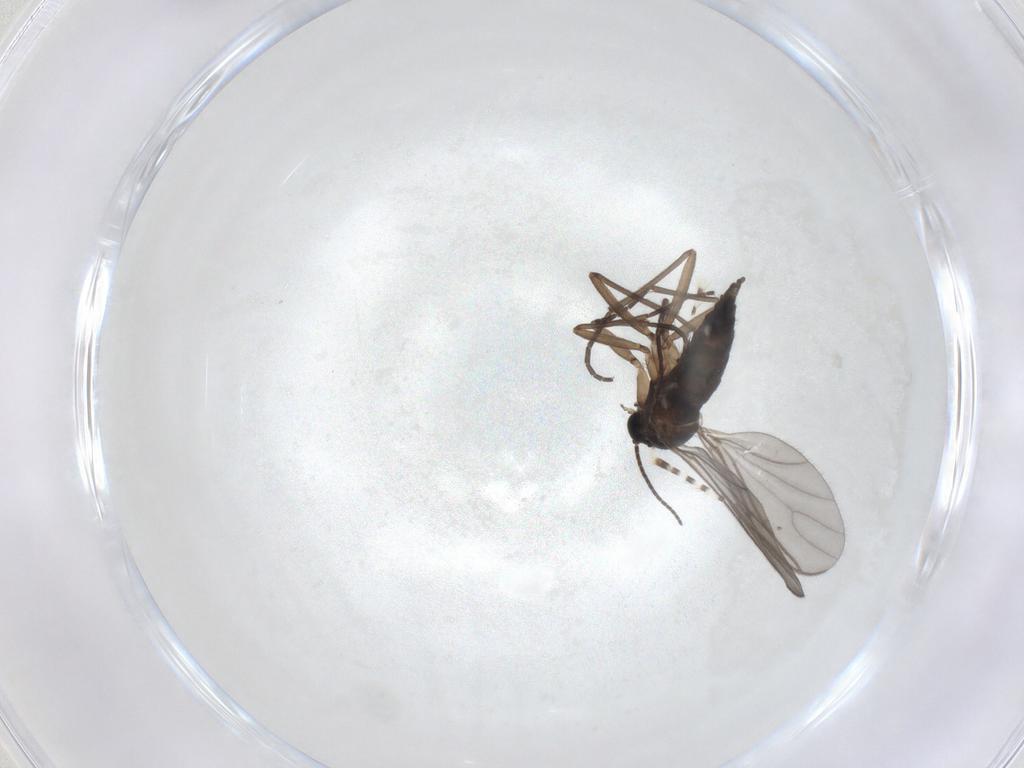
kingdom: Animalia
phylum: Arthropoda
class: Insecta
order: Diptera
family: Sciaridae
